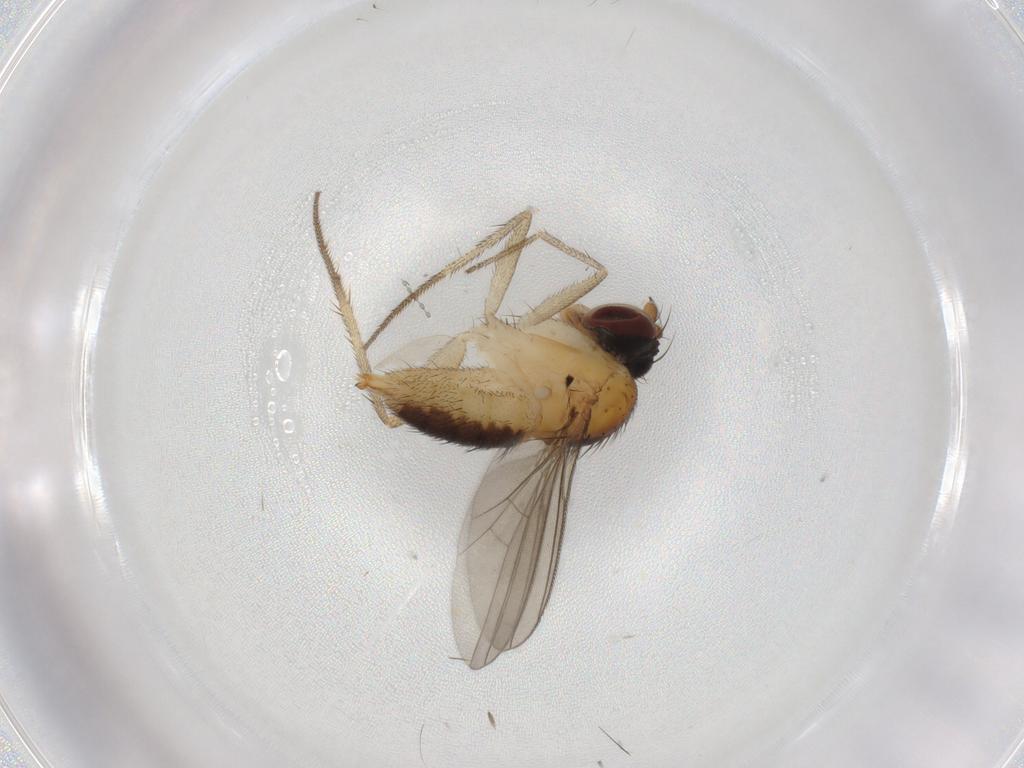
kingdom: Animalia
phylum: Arthropoda
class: Insecta
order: Diptera
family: Dolichopodidae
